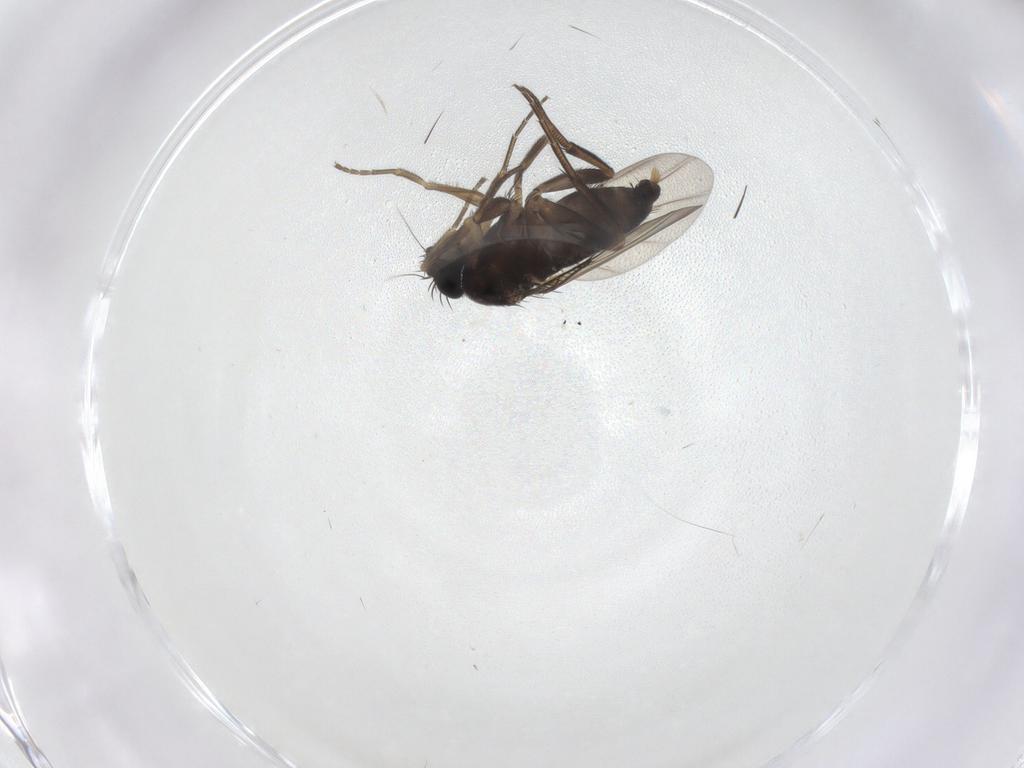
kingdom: Animalia
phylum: Arthropoda
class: Insecta
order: Diptera
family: Phoridae
